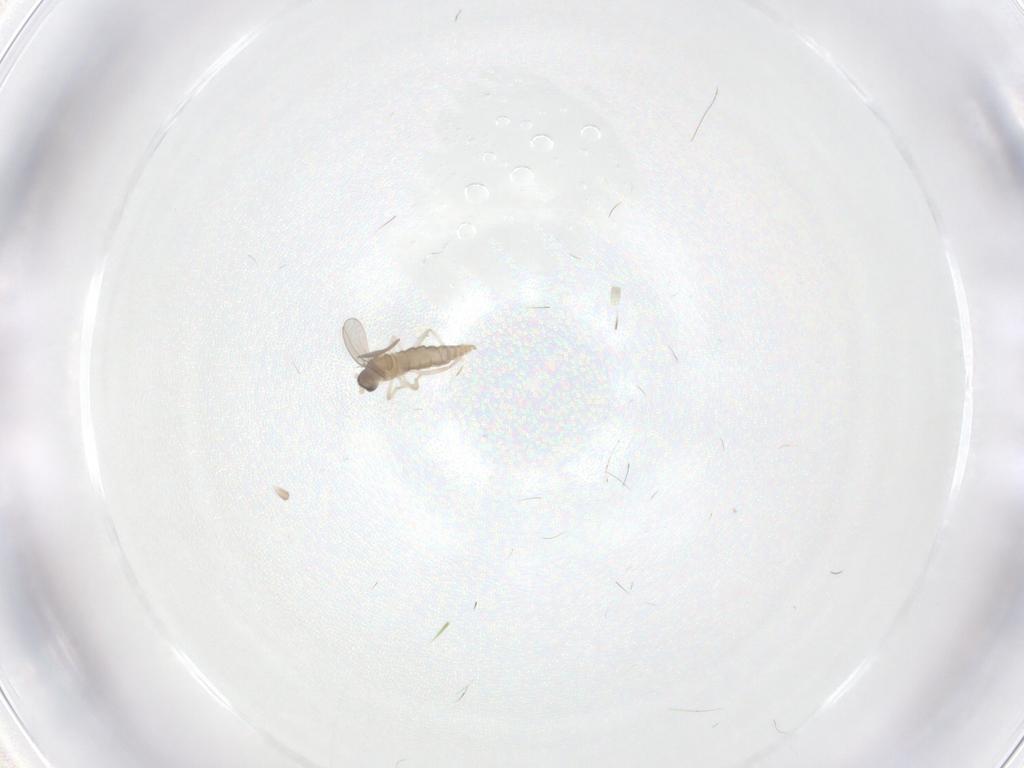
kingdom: Animalia
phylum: Arthropoda
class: Insecta
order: Diptera
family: Cecidomyiidae
